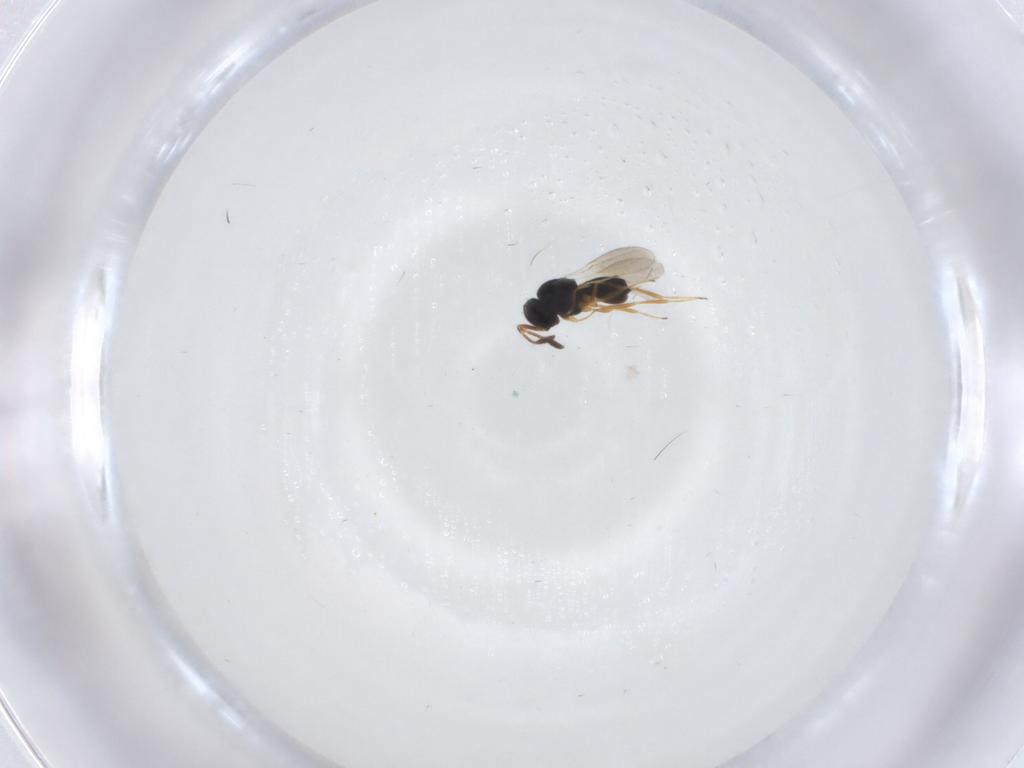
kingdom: Animalia
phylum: Arthropoda
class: Insecta
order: Hymenoptera
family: Scelionidae
